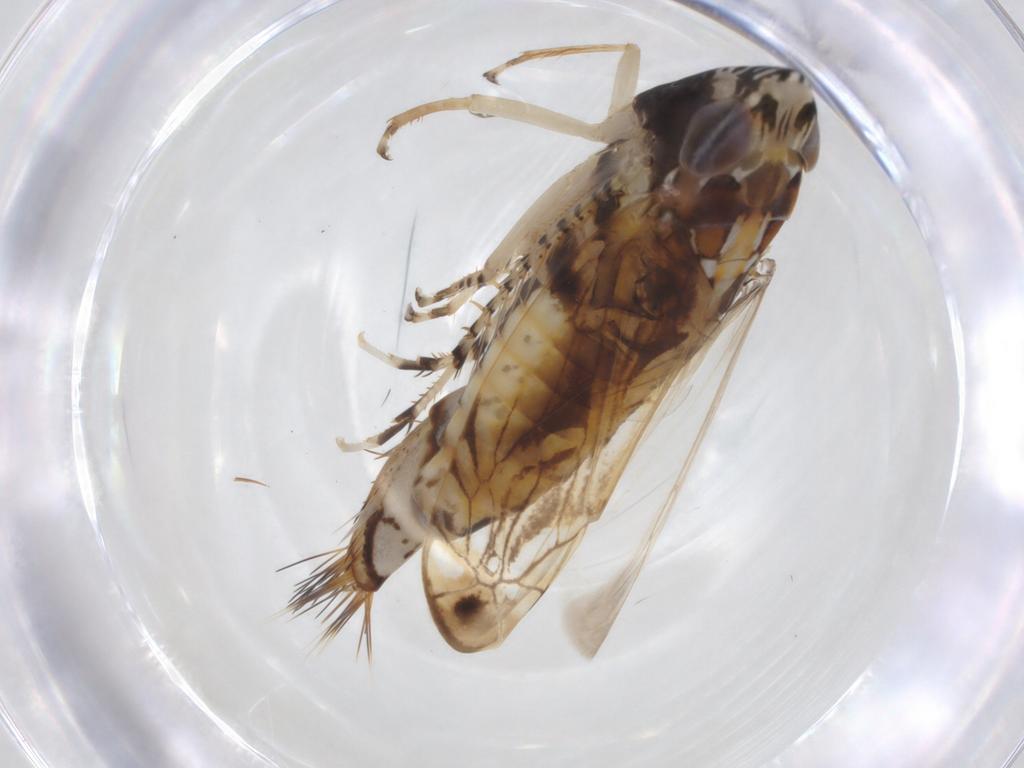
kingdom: Animalia
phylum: Arthropoda
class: Insecta
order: Hemiptera
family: Cicadellidae
